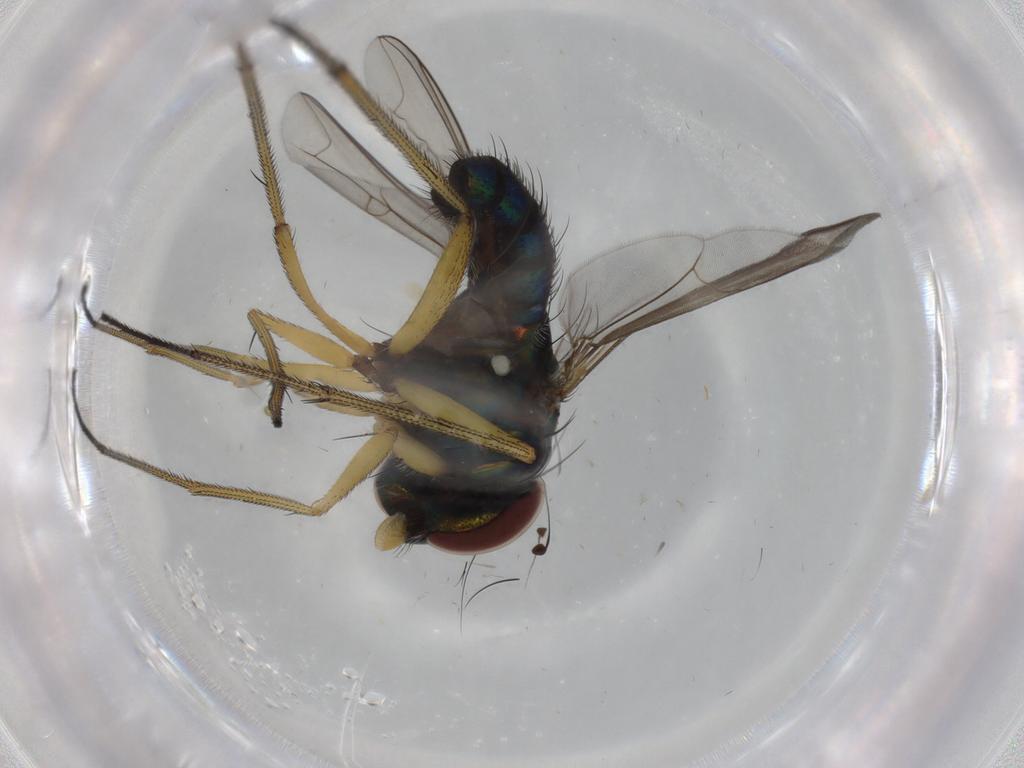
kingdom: Animalia
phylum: Arthropoda
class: Insecta
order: Diptera
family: Dolichopodidae
